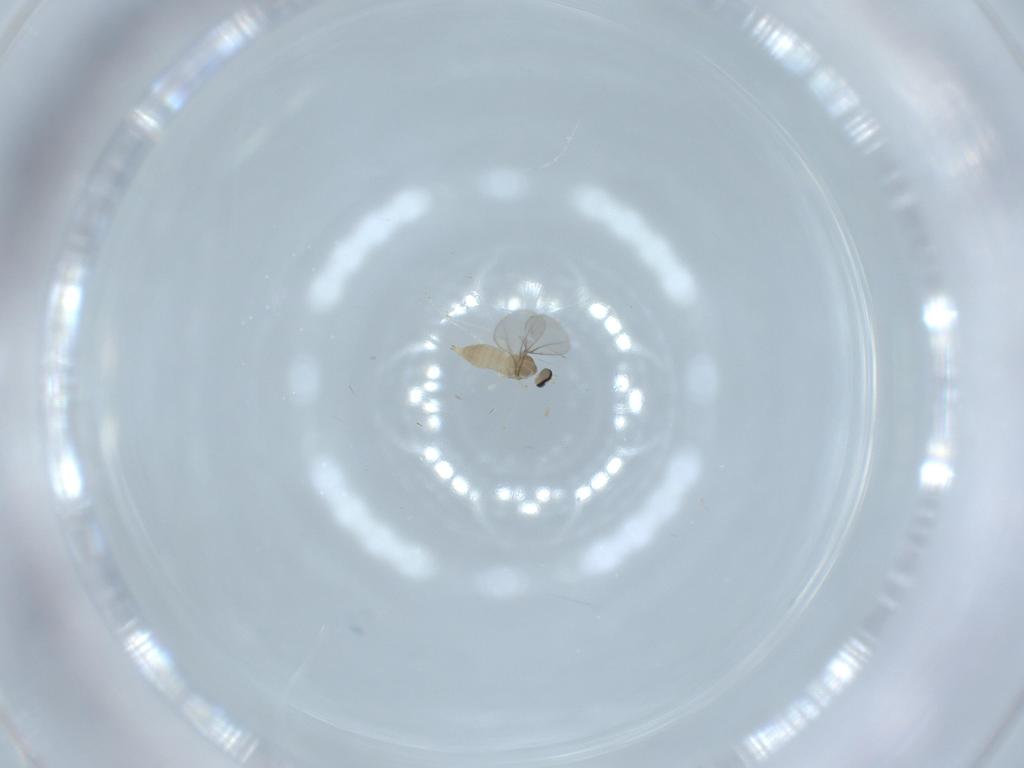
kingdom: Animalia
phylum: Arthropoda
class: Insecta
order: Diptera
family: Cecidomyiidae
